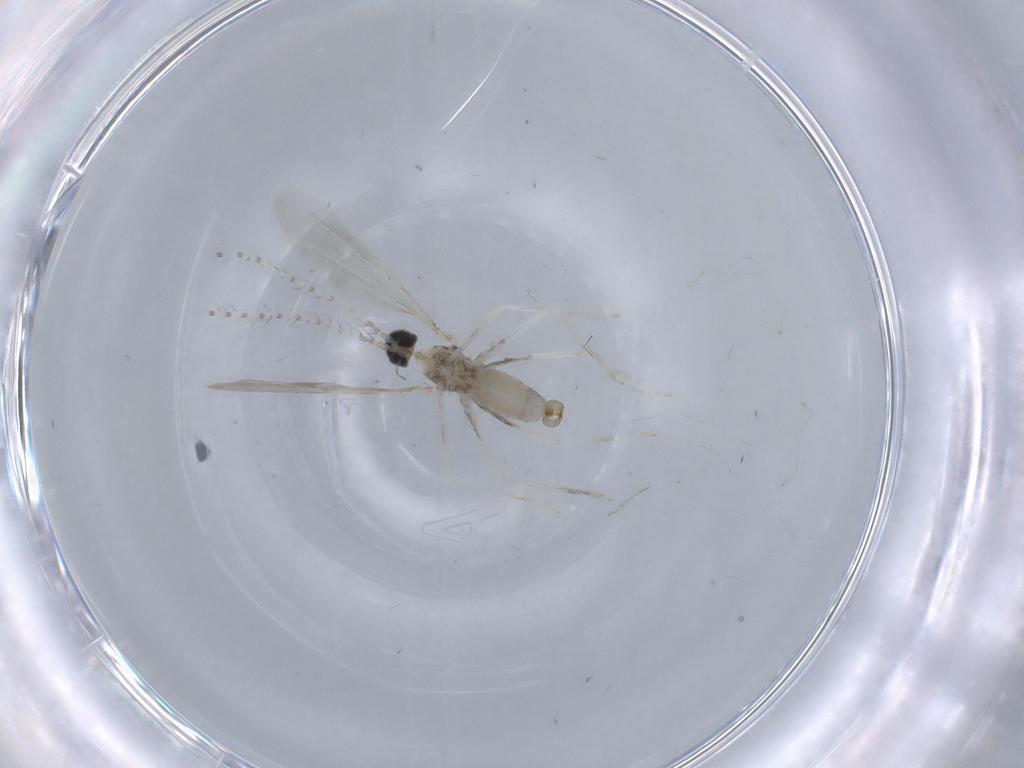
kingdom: Animalia
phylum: Arthropoda
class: Insecta
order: Diptera
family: Cecidomyiidae
